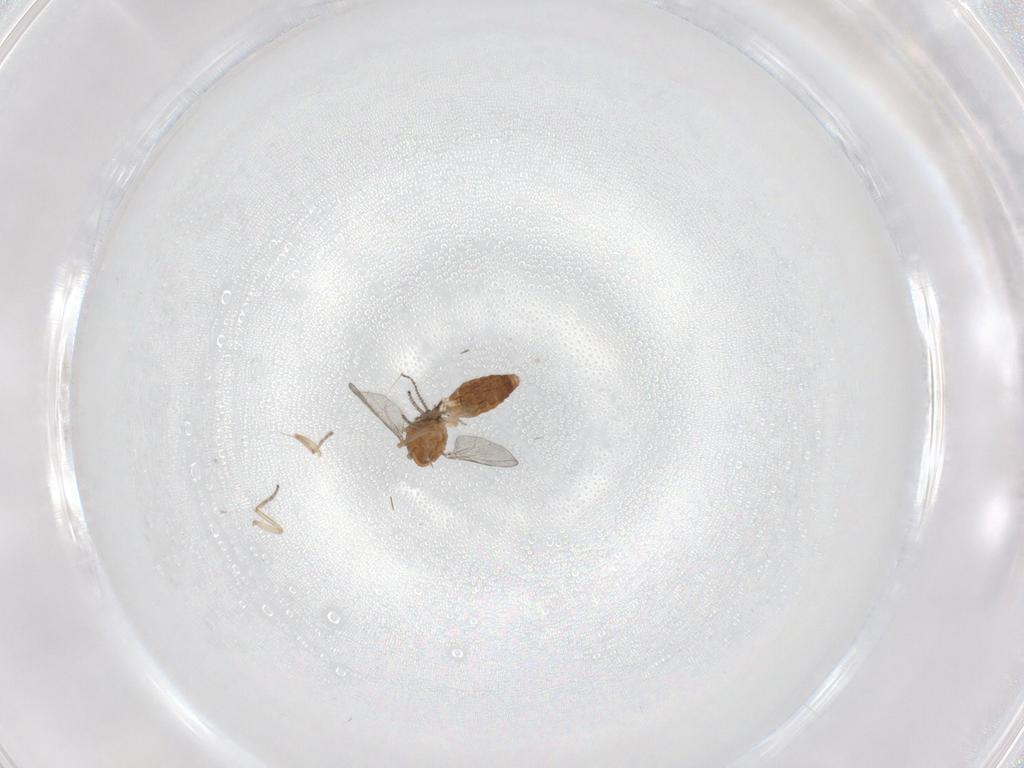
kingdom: Animalia
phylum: Arthropoda
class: Insecta
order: Diptera
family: Ceratopogonidae
